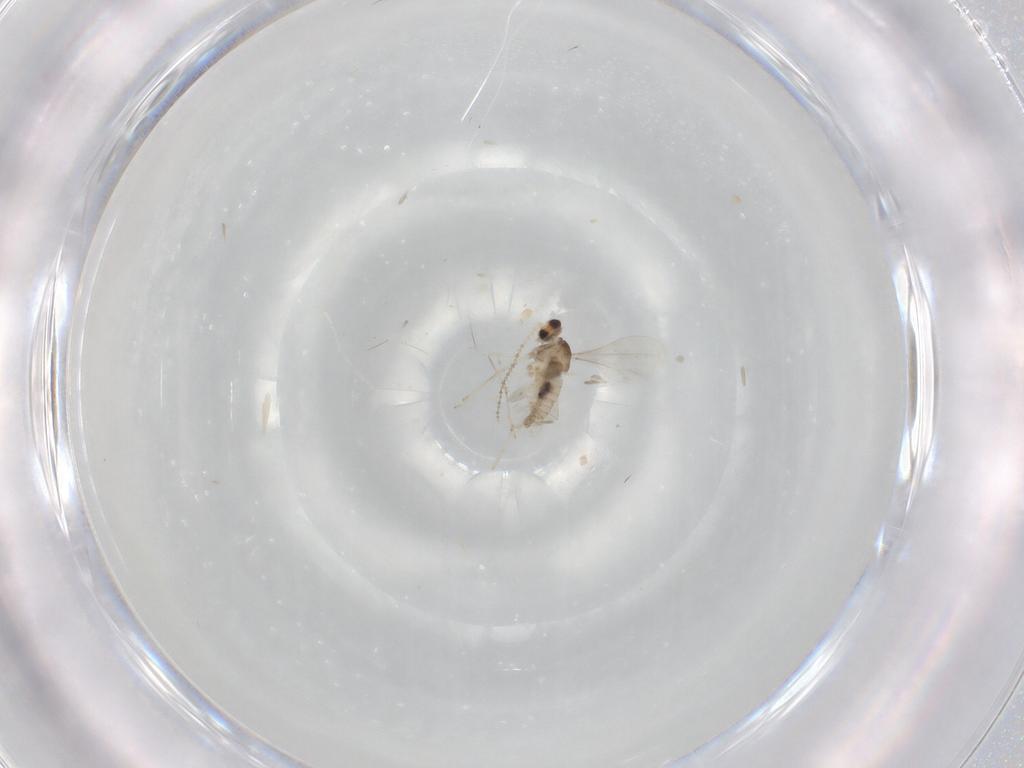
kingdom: Animalia
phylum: Arthropoda
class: Insecta
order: Diptera
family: Cecidomyiidae
